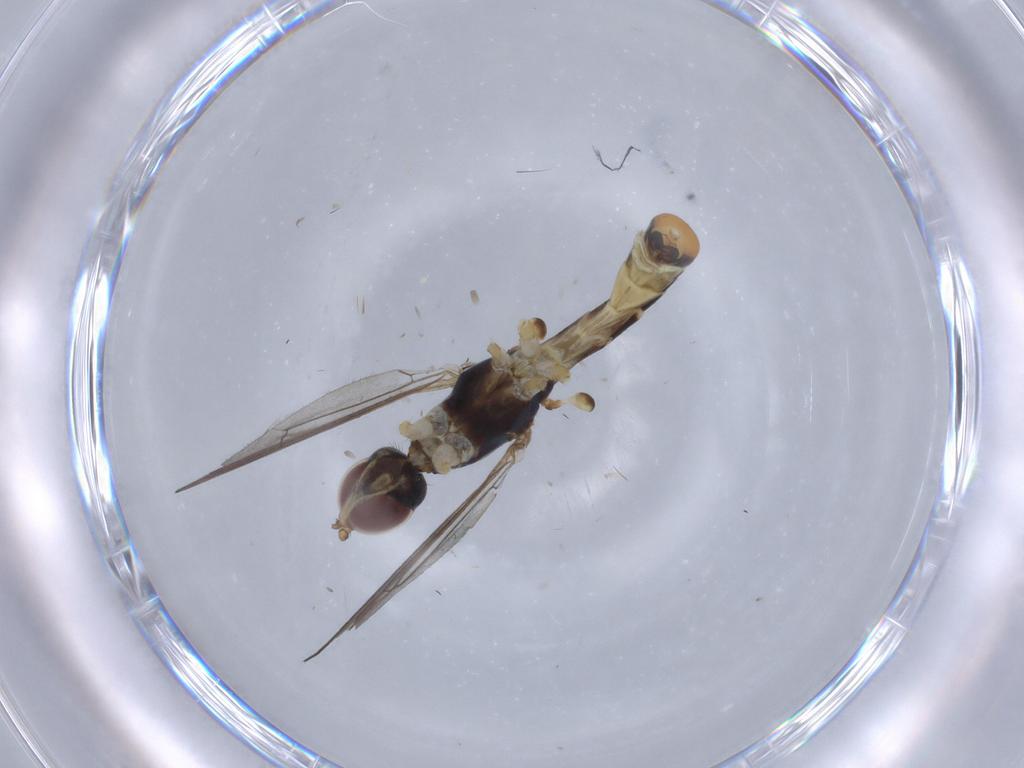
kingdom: Animalia
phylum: Arthropoda
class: Insecta
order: Diptera
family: Micropezidae
